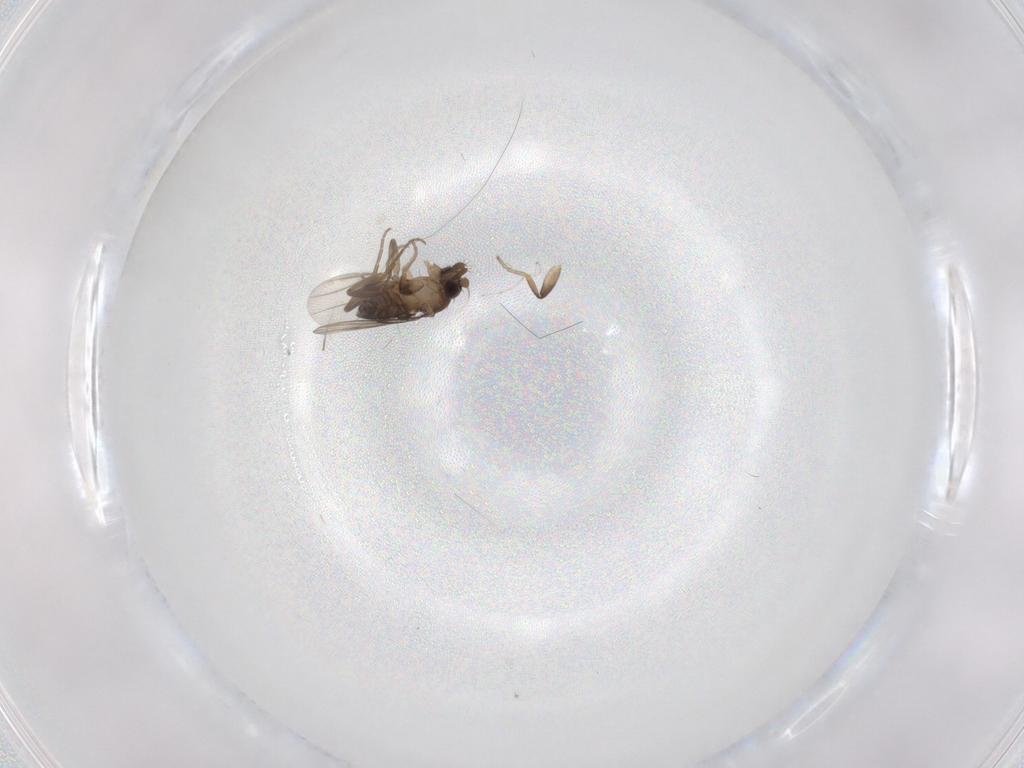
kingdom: Animalia
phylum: Arthropoda
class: Insecta
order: Diptera
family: Phoridae
